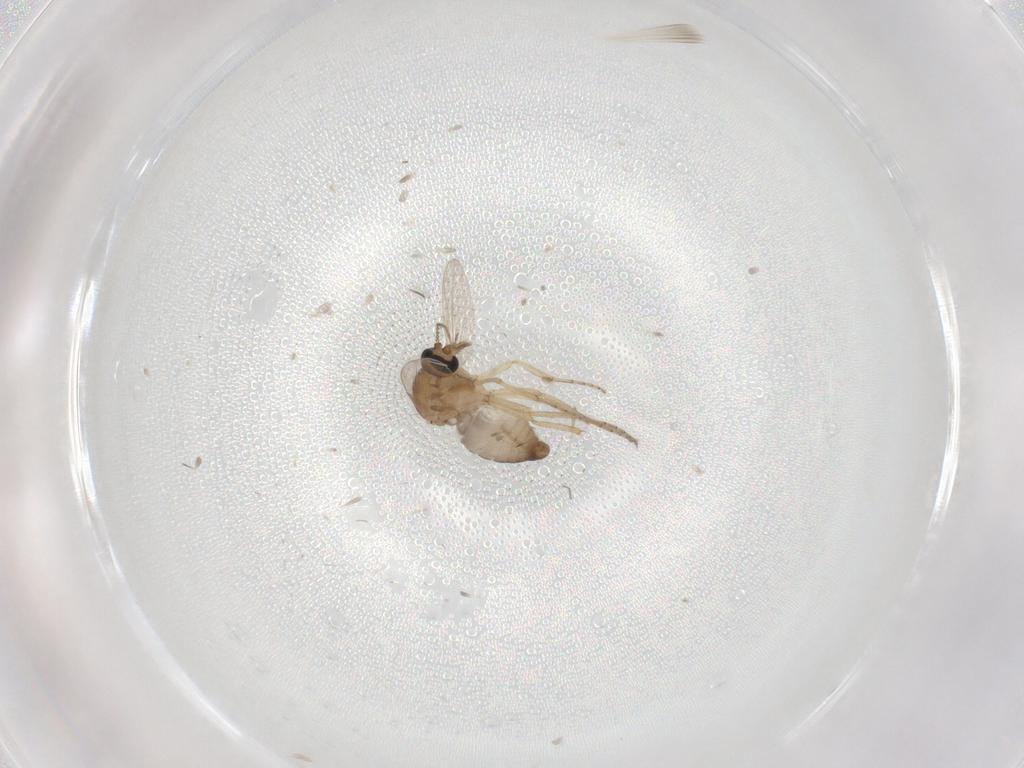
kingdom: Animalia
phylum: Arthropoda
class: Insecta
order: Diptera
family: Ceratopogonidae
